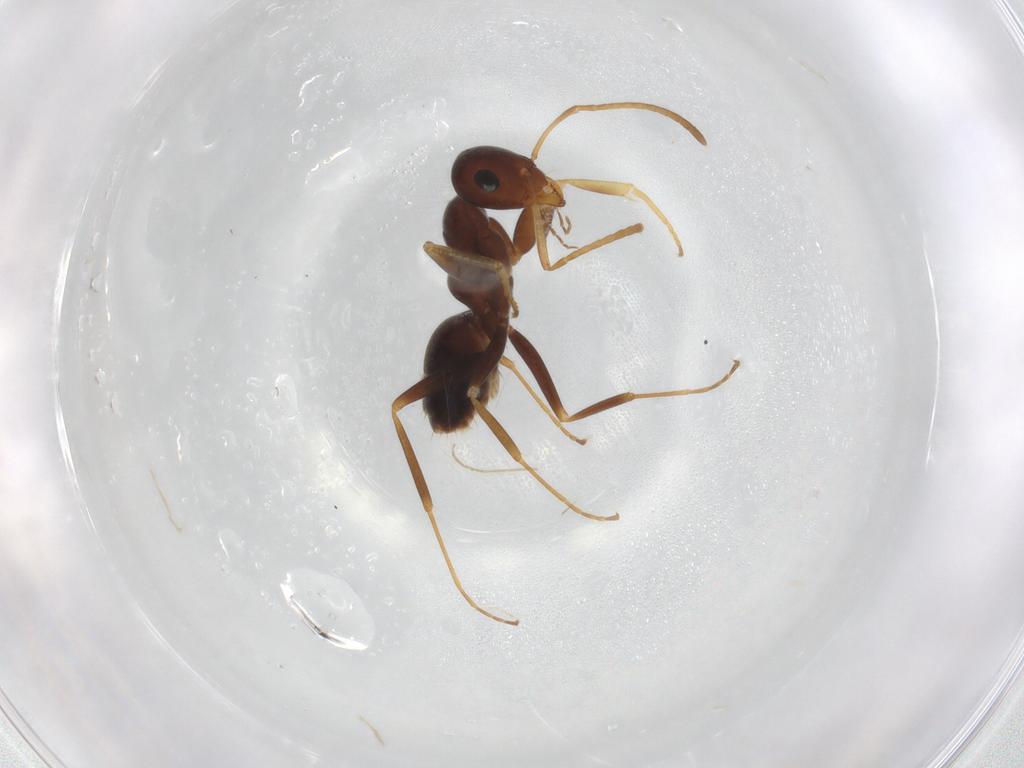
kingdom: Animalia
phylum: Arthropoda
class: Insecta
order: Hymenoptera
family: Formicidae
